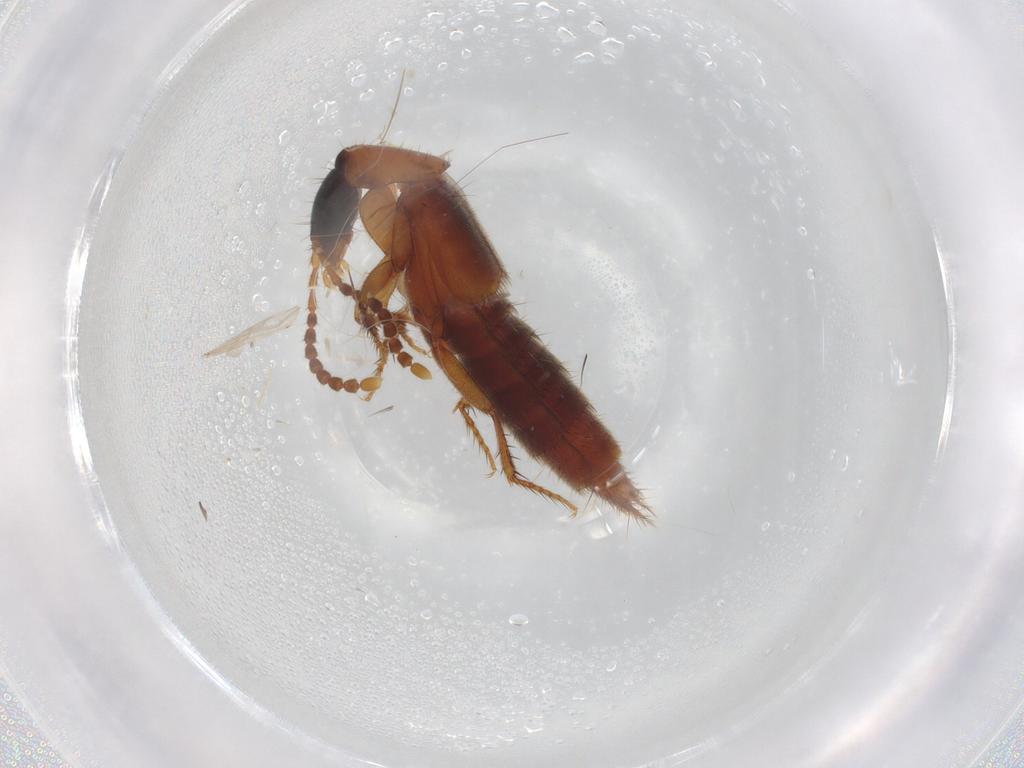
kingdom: Animalia
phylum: Arthropoda
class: Insecta
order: Coleoptera
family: Staphylinidae
